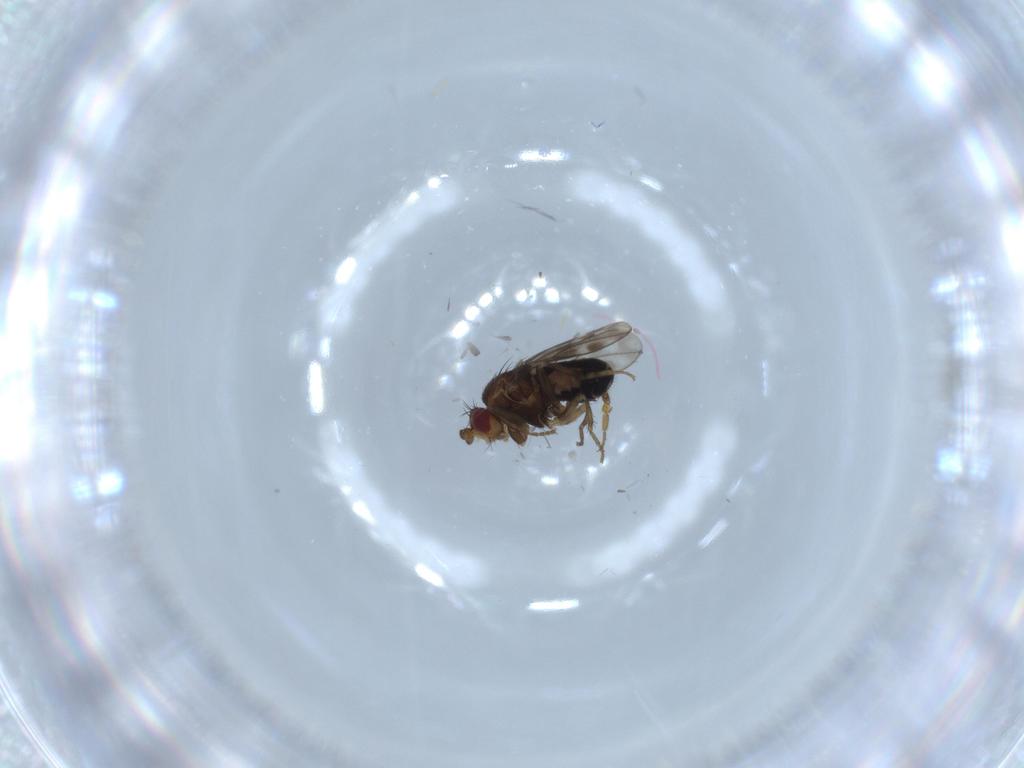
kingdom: Animalia
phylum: Arthropoda
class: Insecta
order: Diptera
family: Sphaeroceridae
